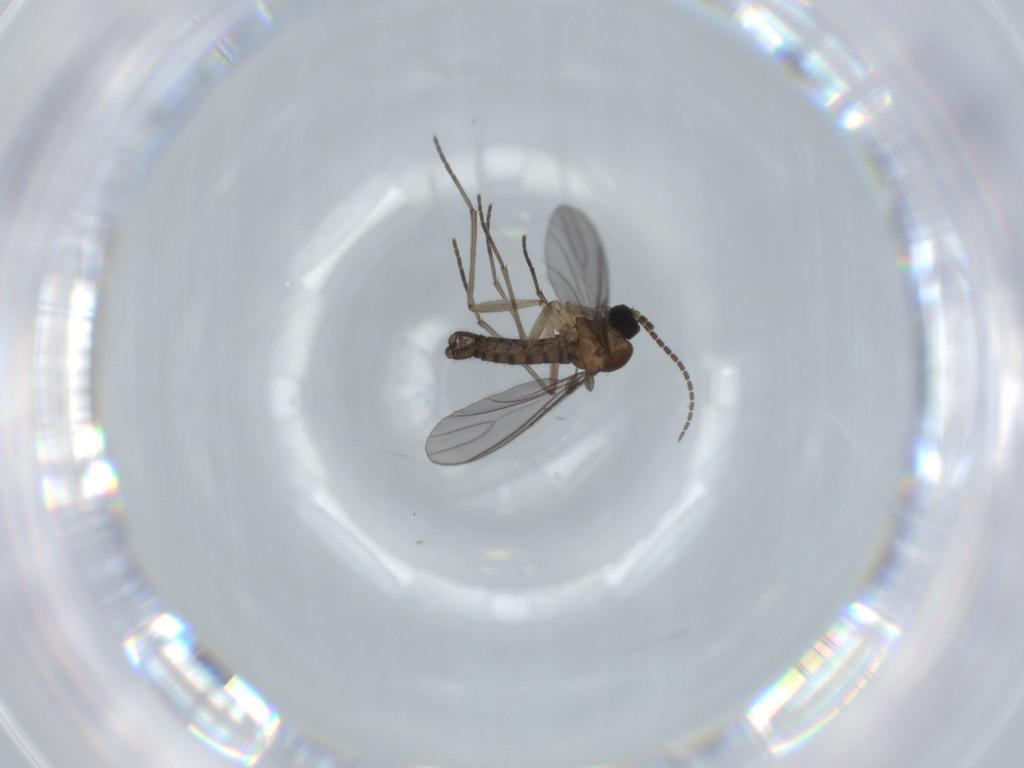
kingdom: Animalia
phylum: Arthropoda
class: Insecta
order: Diptera
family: Sciaridae
